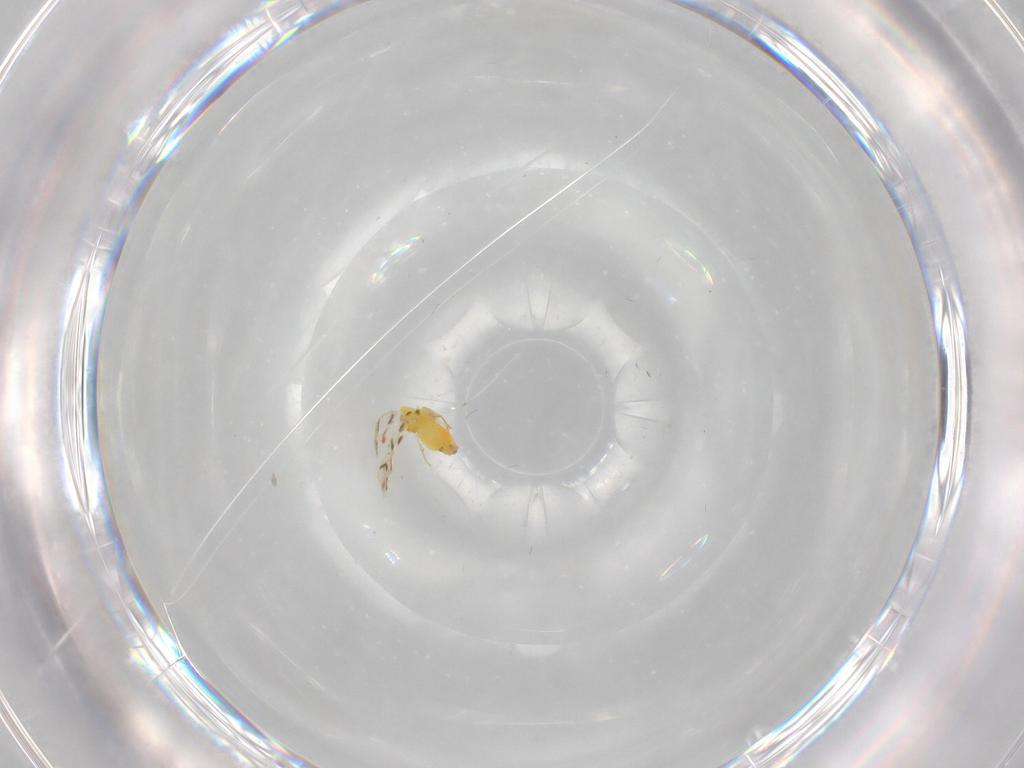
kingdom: Animalia
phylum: Arthropoda
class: Insecta
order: Hemiptera
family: Aleyrodidae
